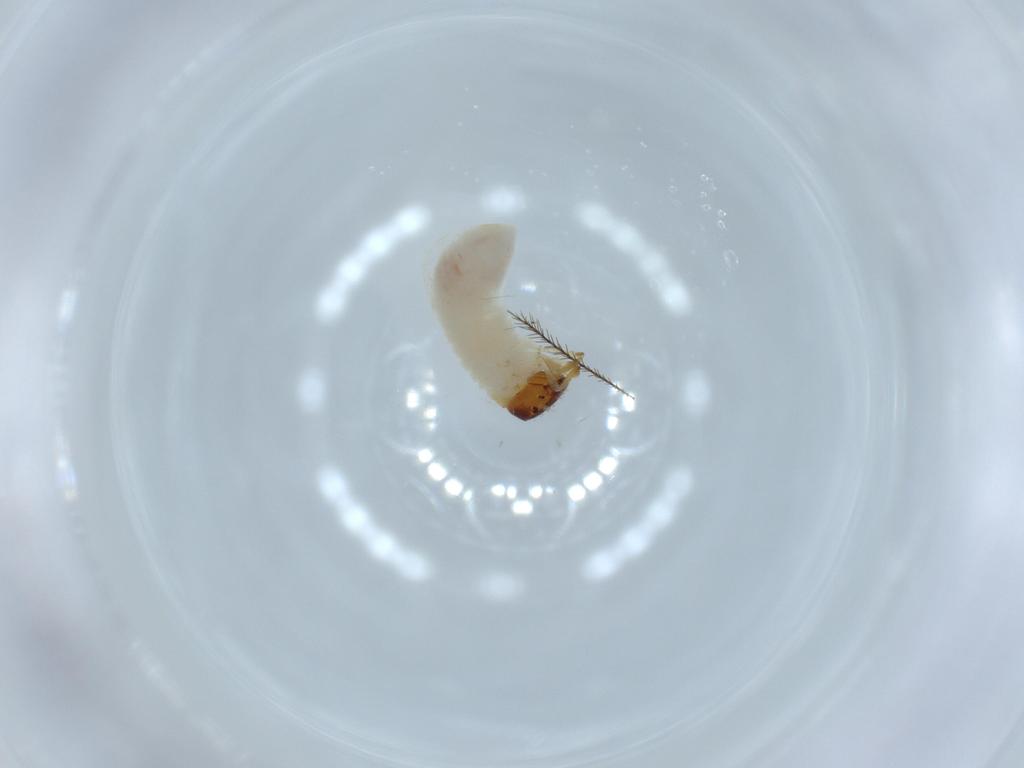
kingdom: Animalia
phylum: Arthropoda
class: Insecta
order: Coleoptera
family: Chrysomelidae
